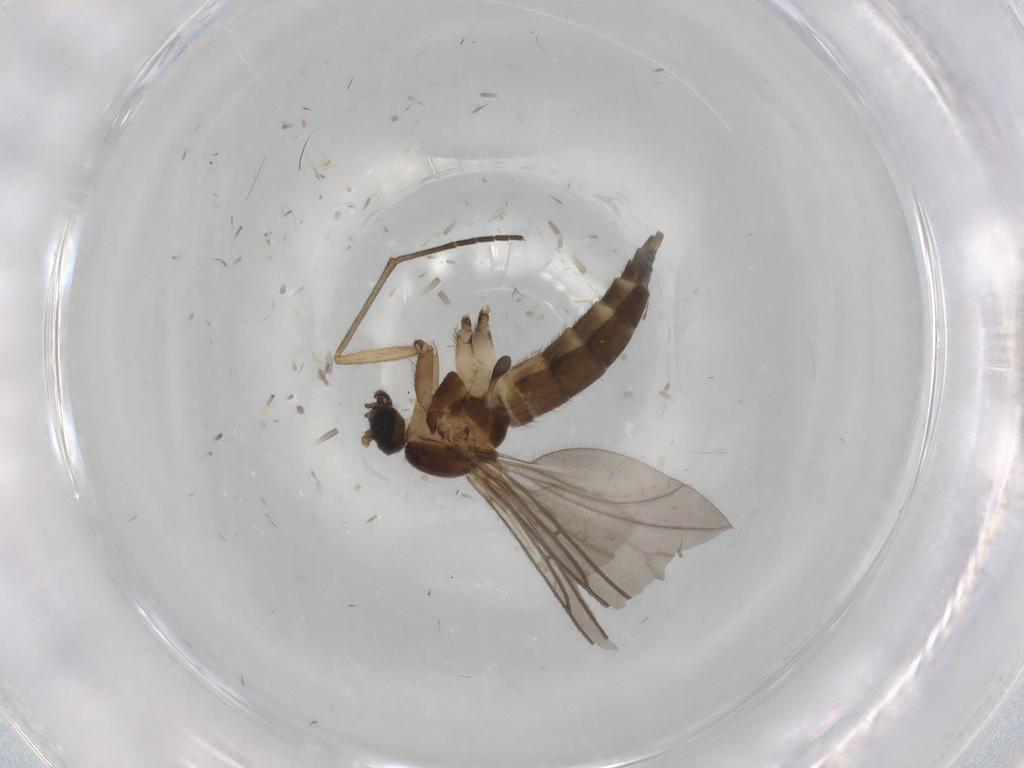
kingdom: Animalia
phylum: Arthropoda
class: Insecta
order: Diptera
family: Sciaridae
